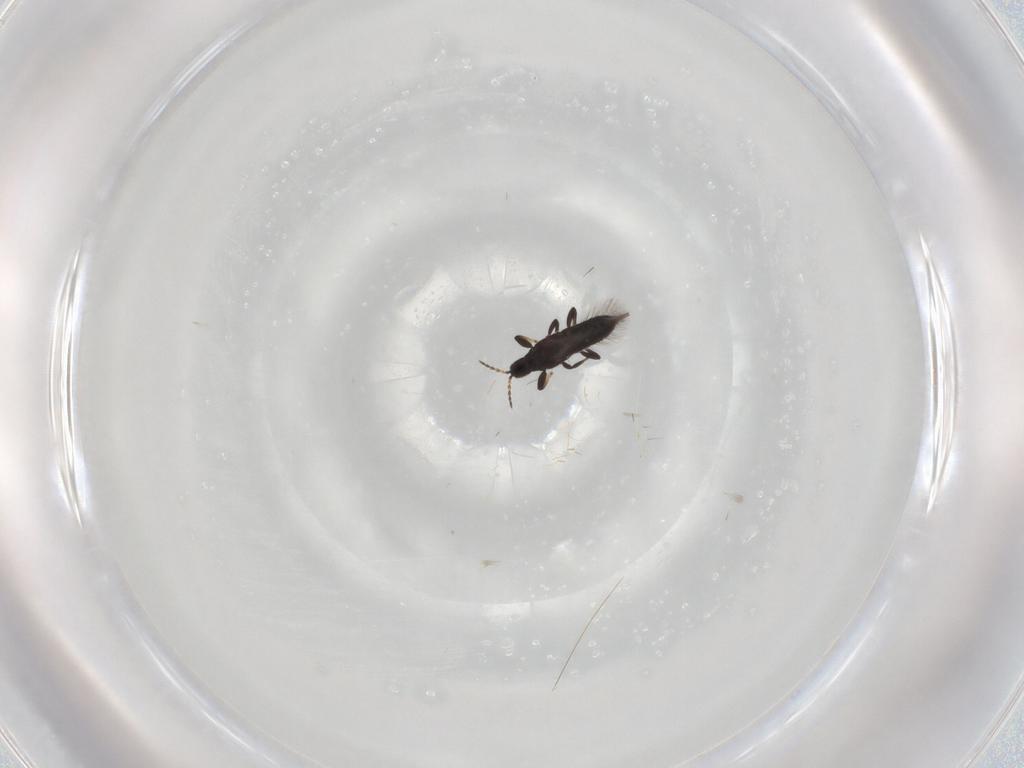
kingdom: Animalia
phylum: Arthropoda
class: Insecta
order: Thysanoptera
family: Phlaeothripidae
